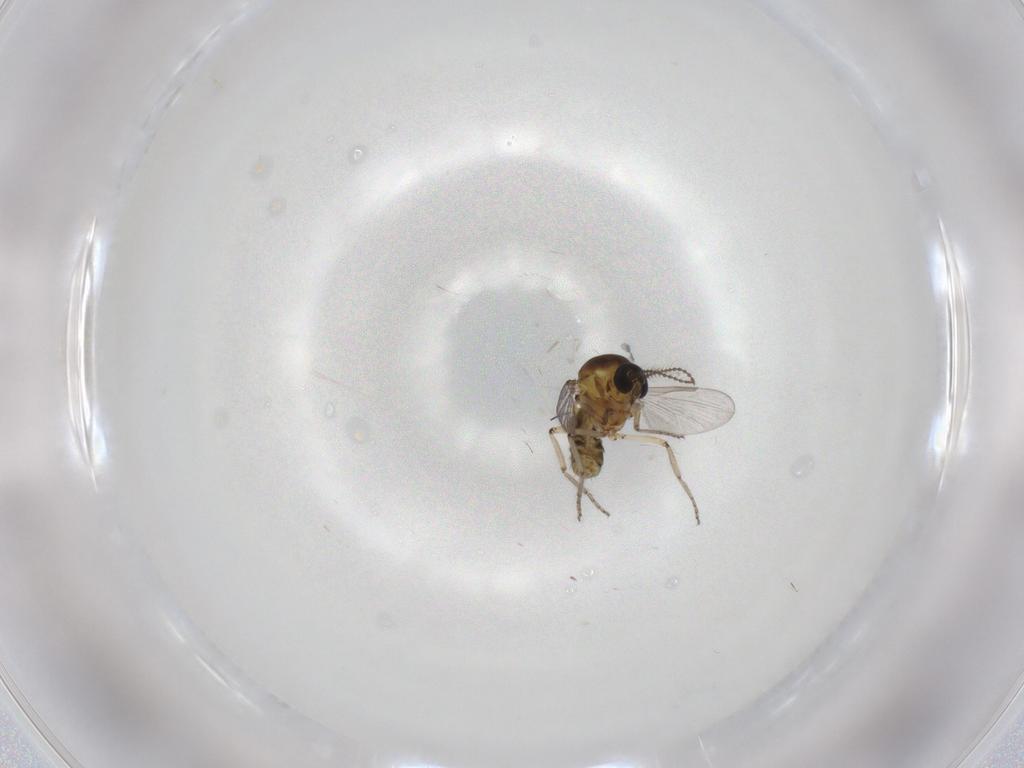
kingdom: Animalia
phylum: Arthropoda
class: Insecta
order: Diptera
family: Ceratopogonidae
